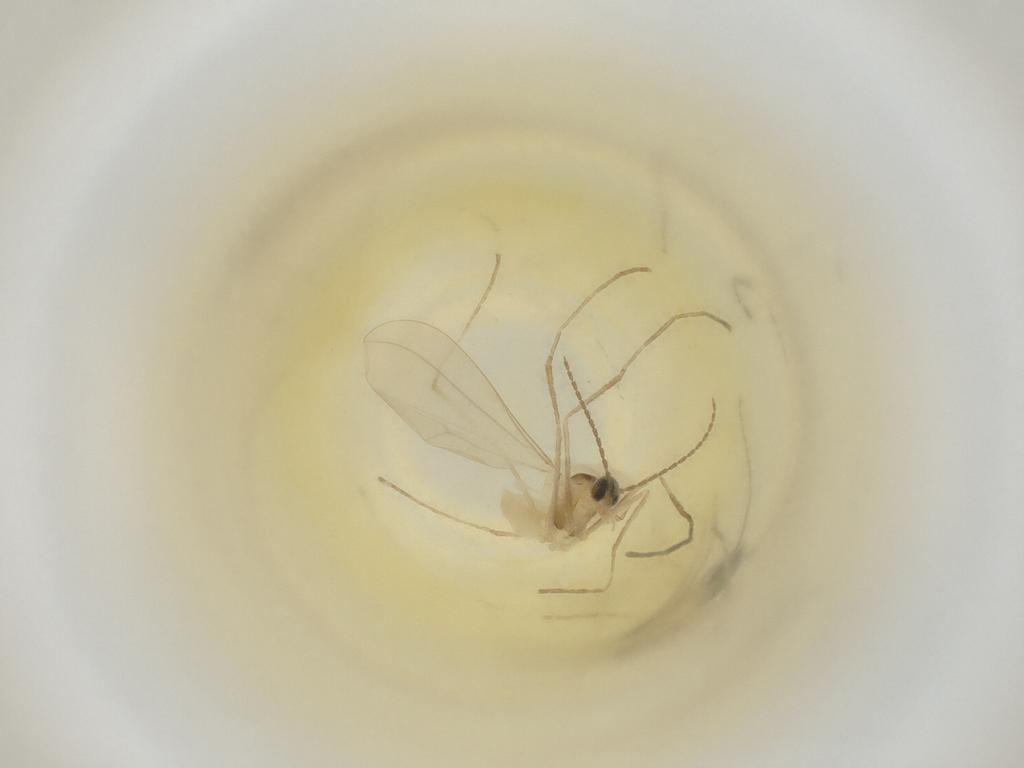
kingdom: Animalia
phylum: Arthropoda
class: Insecta
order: Diptera
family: Cecidomyiidae
